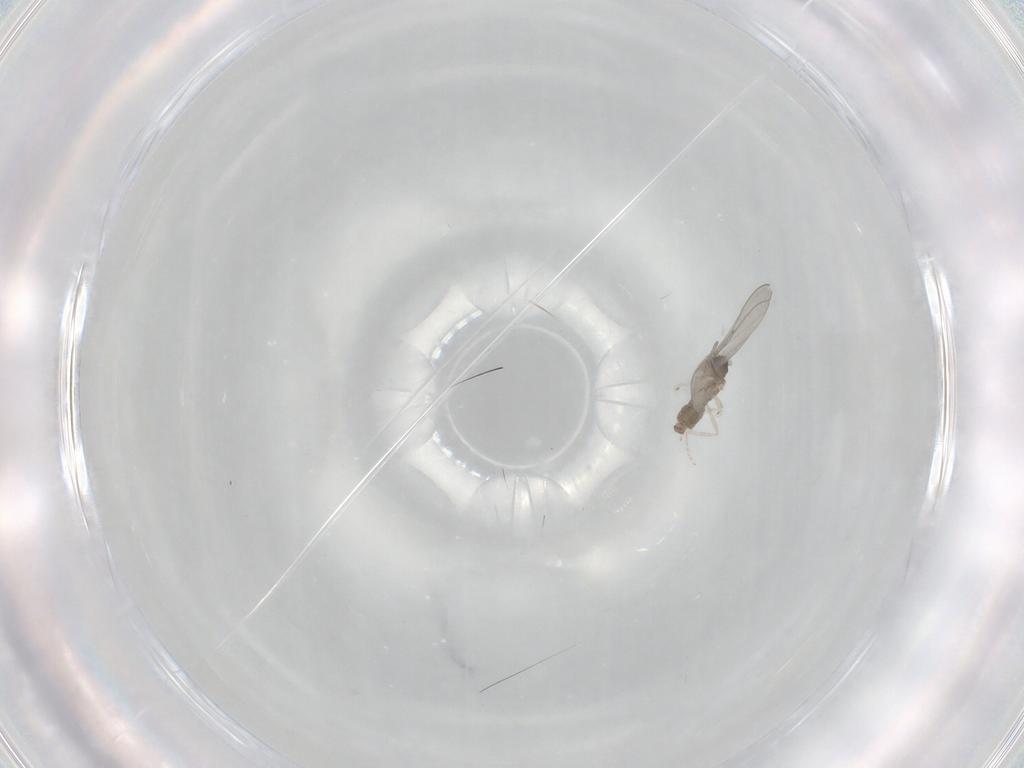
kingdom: Animalia
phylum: Arthropoda
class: Insecta
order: Diptera
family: Cecidomyiidae
